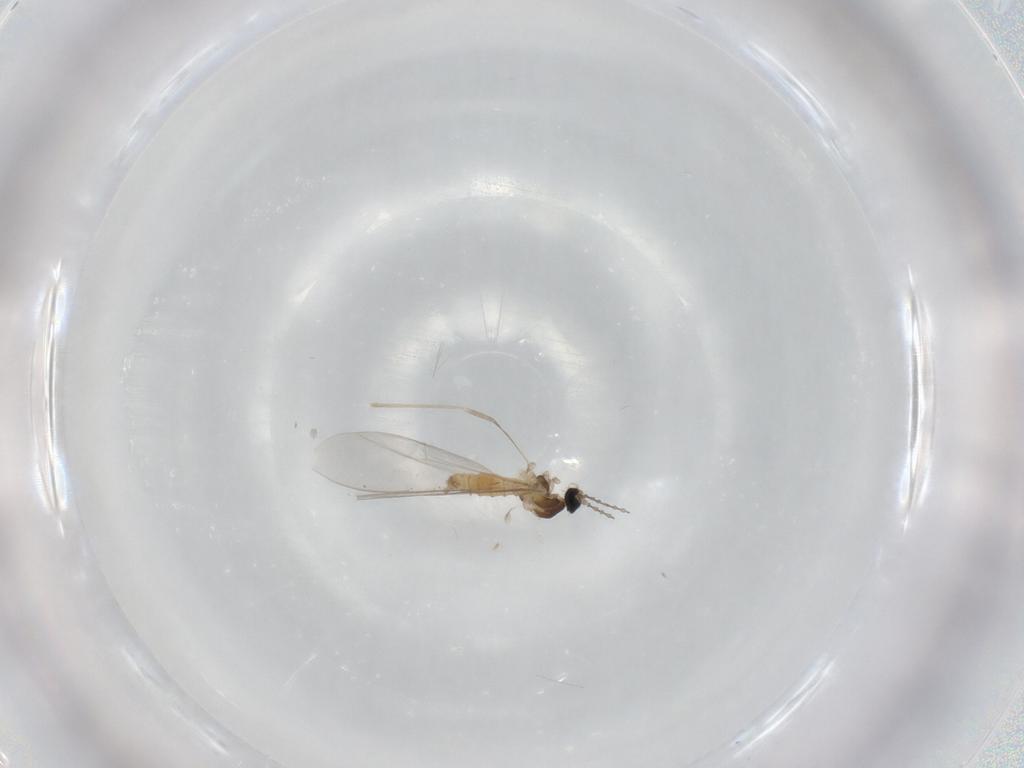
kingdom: Animalia
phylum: Arthropoda
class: Insecta
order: Diptera
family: Cecidomyiidae
